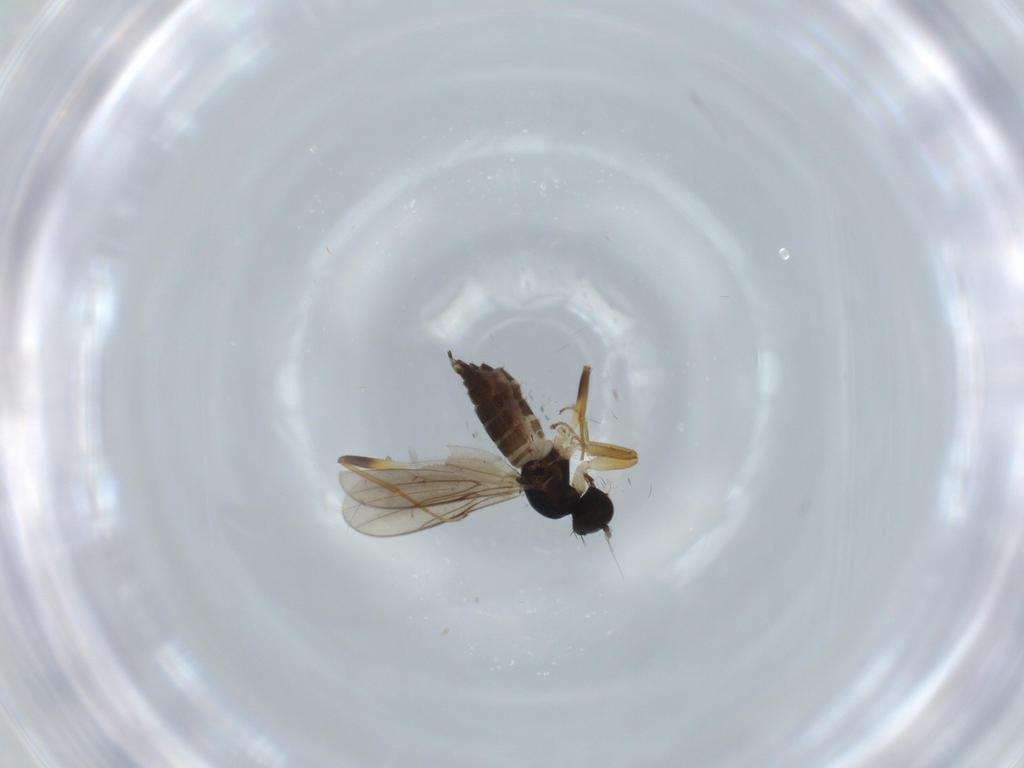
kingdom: Animalia
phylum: Arthropoda
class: Insecta
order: Diptera
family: Hybotidae
